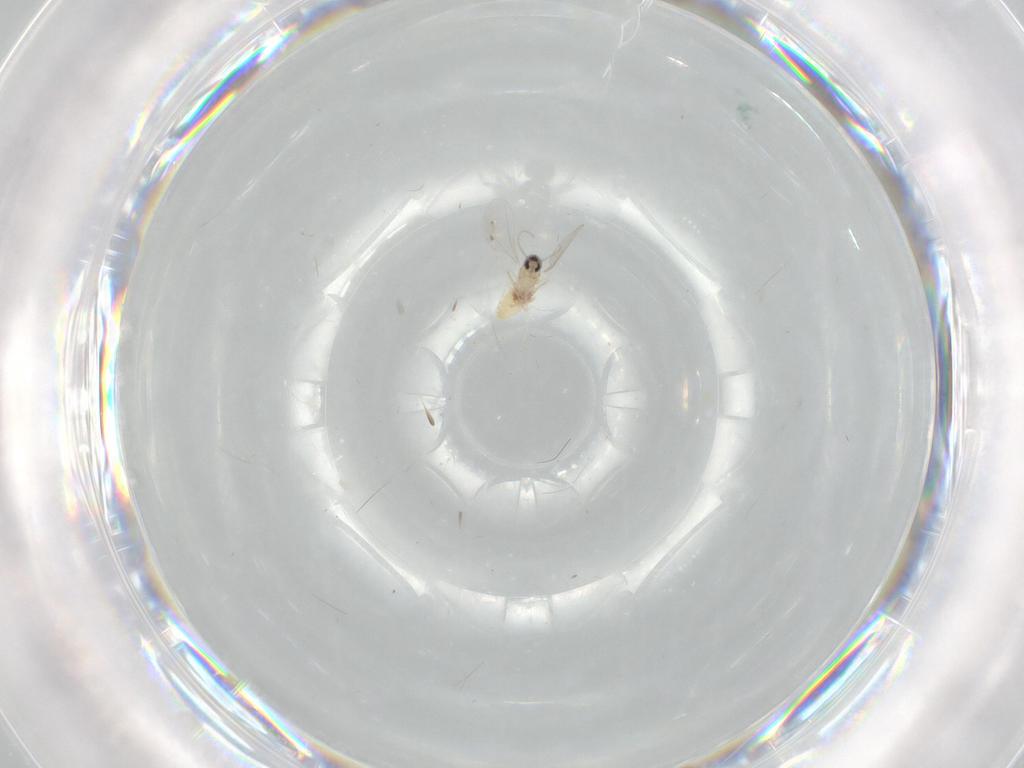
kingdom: Animalia
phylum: Arthropoda
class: Insecta
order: Diptera
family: Cecidomyiidae
